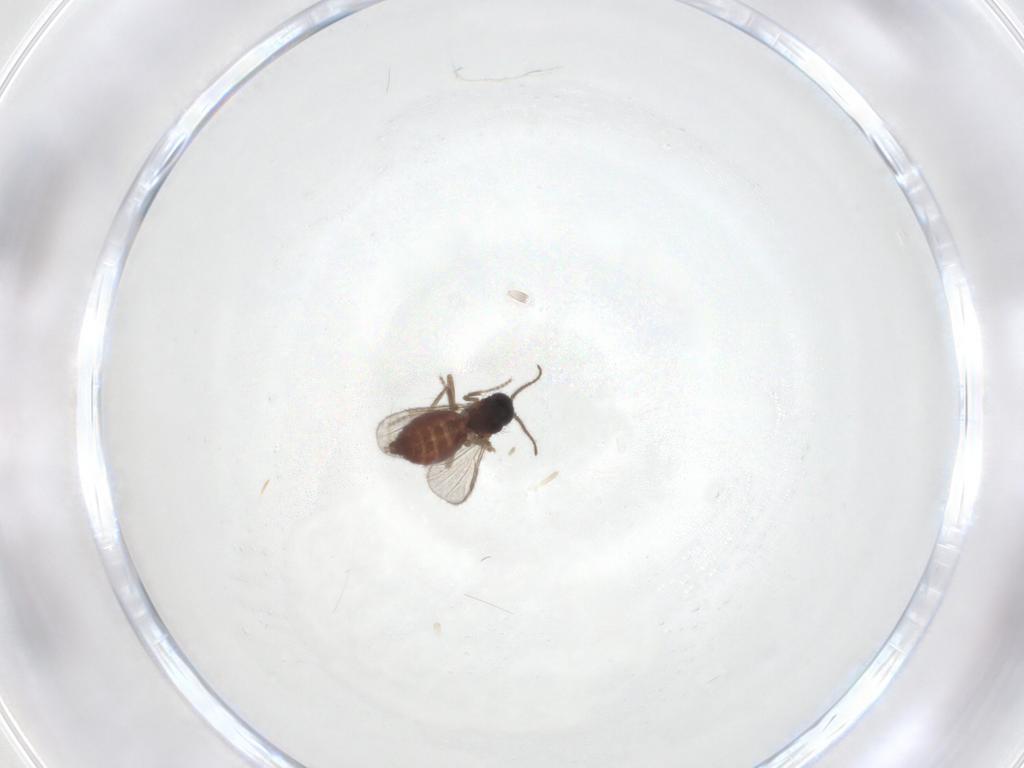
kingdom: Animalia
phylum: Arthropoda
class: Insecta
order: Diptera
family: Ceratopogonidae
